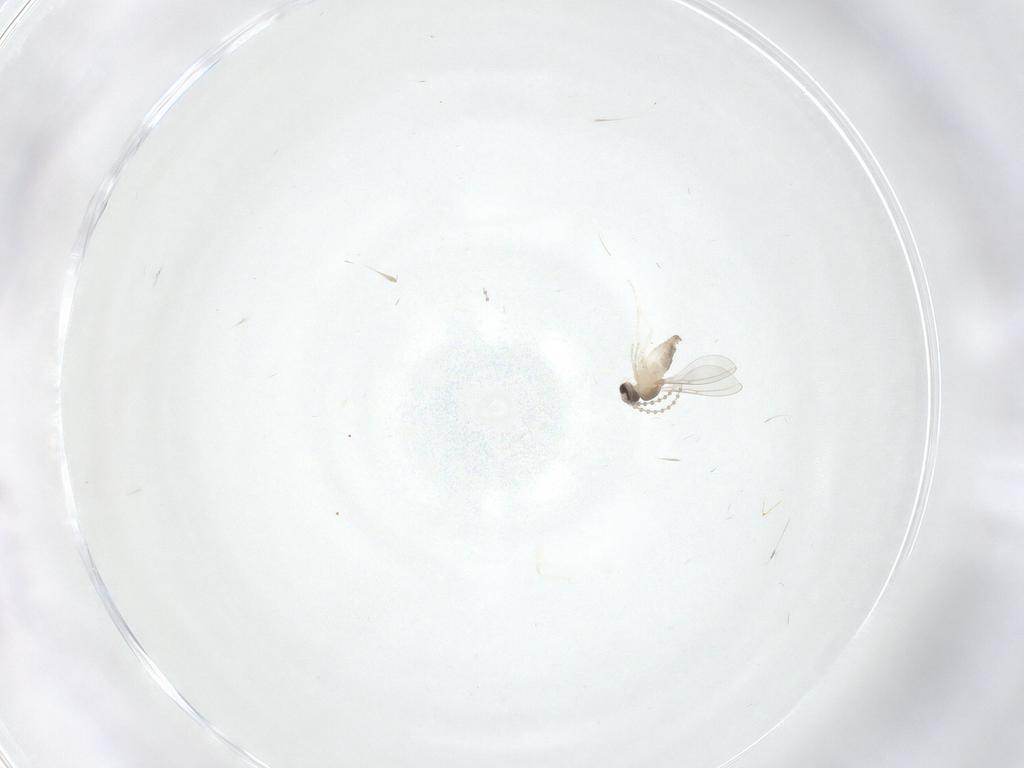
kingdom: Animalia
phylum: Arthropoda
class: Insecta
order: Diptera
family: Cecidomyiidae
